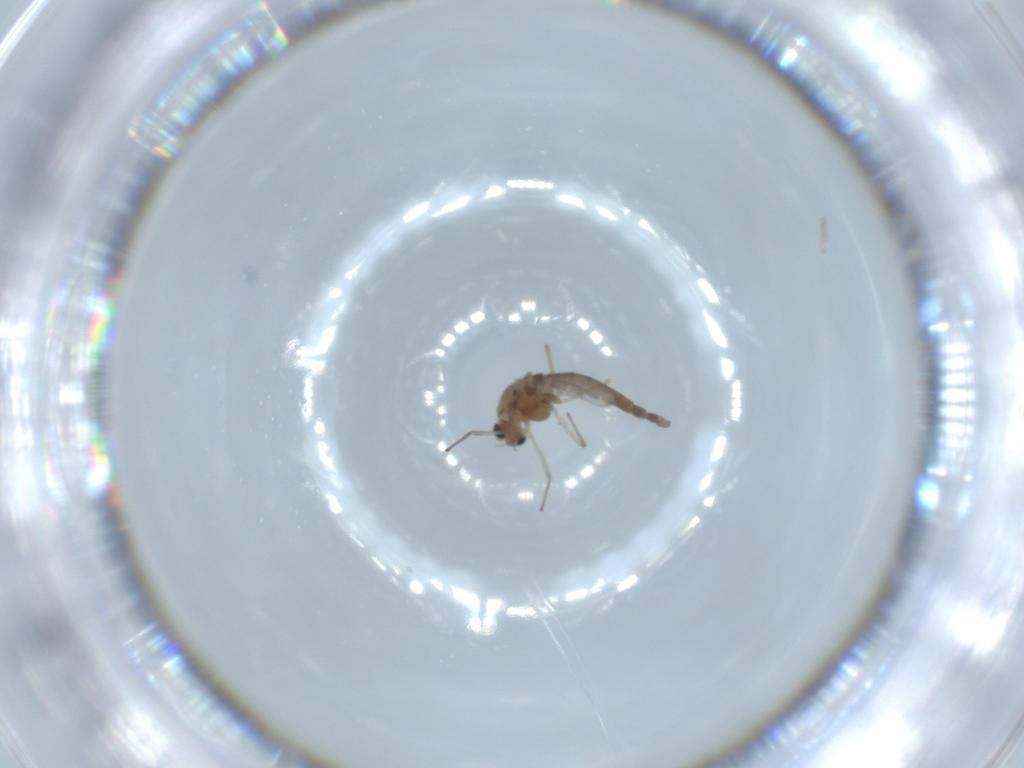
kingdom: Animalia
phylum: Arthropoda
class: Insecta
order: Diptera
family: Chironomidae
